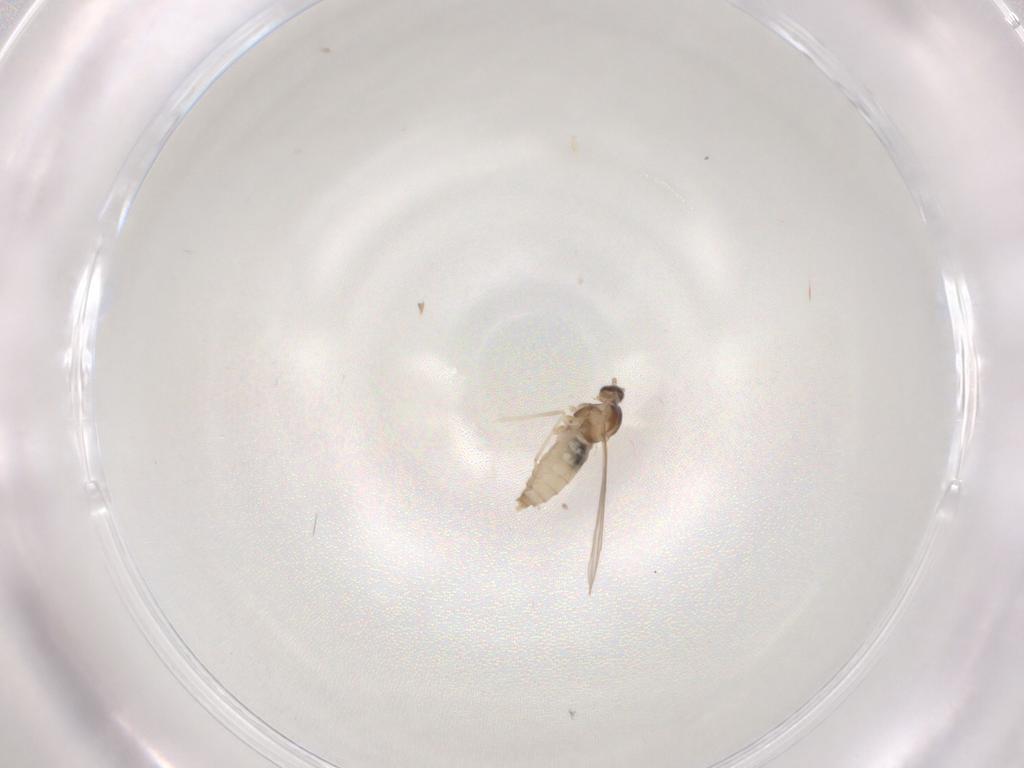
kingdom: Animalia
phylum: Arthropoda
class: Insecta
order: Diptera
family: Cecidomyiidae
